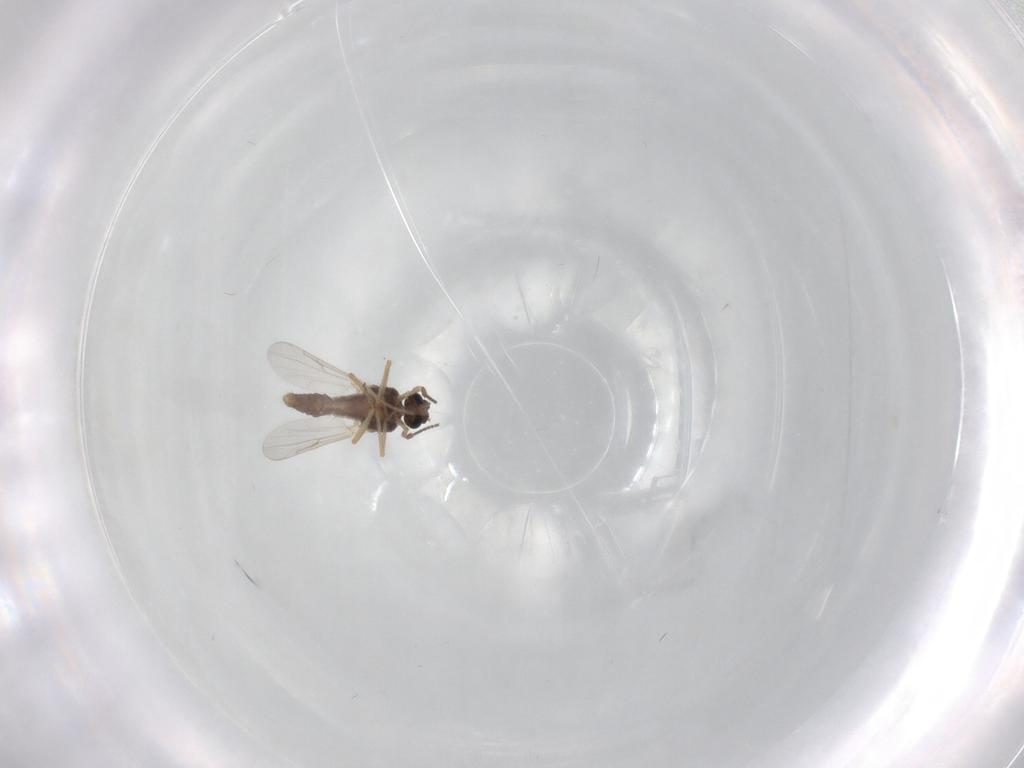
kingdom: Animalia
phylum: Arthropoda
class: Insecta
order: Diptera
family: Ceratopogonidae
